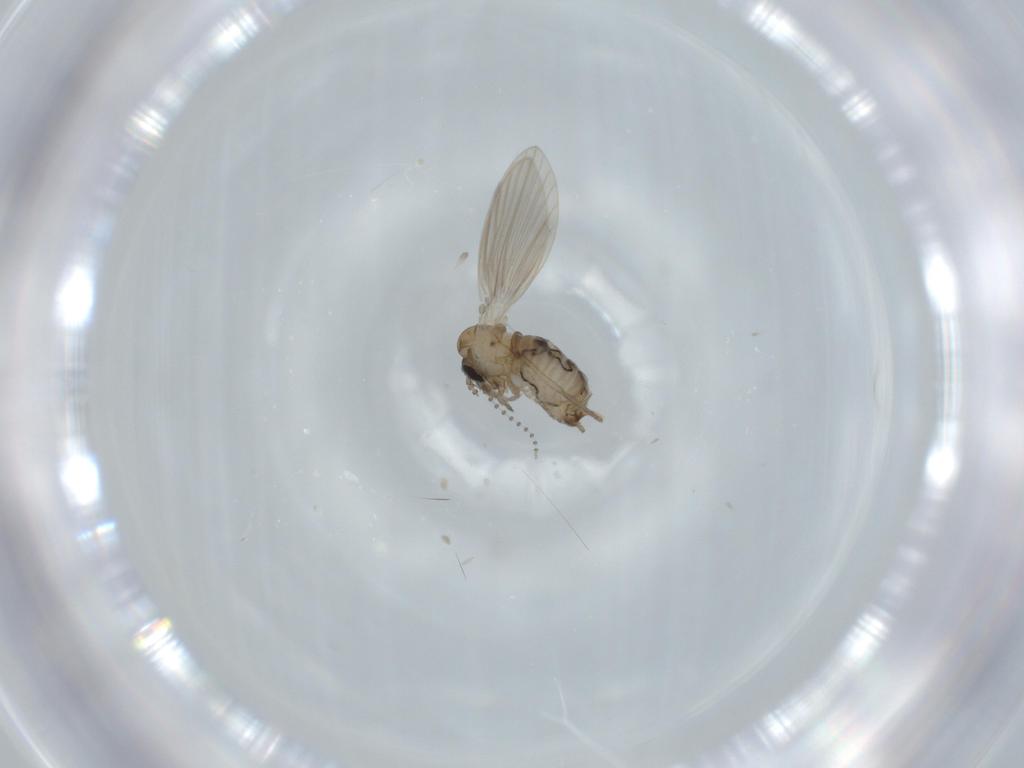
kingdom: Animalia
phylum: Arthropoda
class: Insecta
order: Diptera
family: Psychodidae
